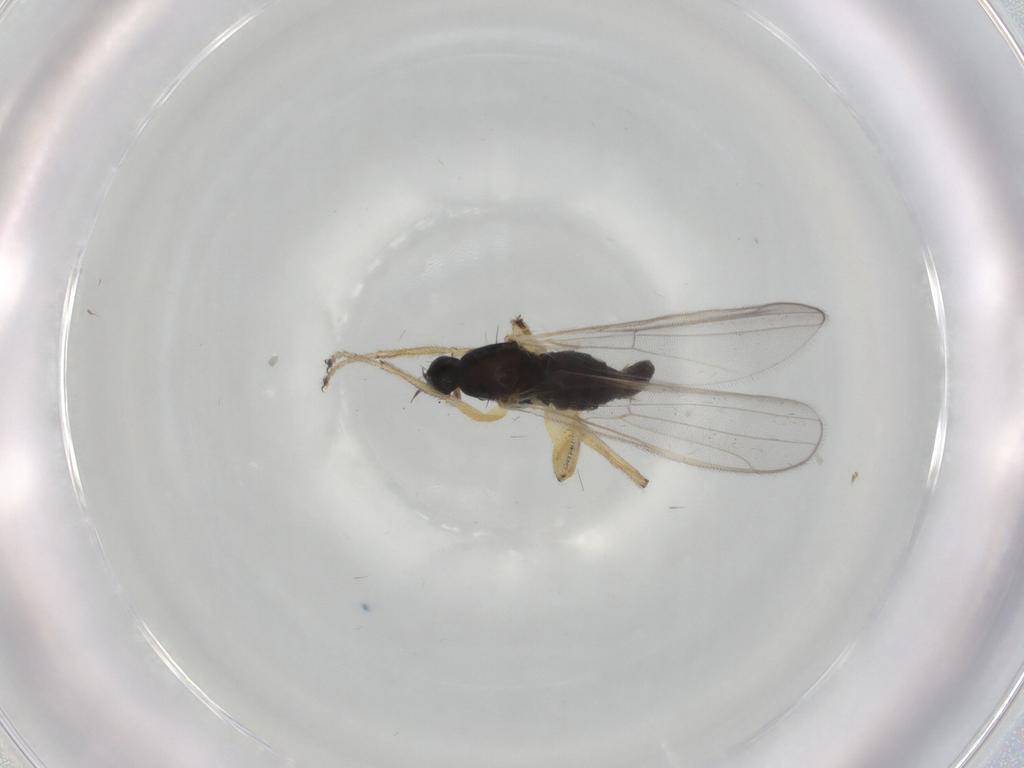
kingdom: Animalia
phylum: Arthropoda
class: Insecta
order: Diptera
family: Hybotidae
